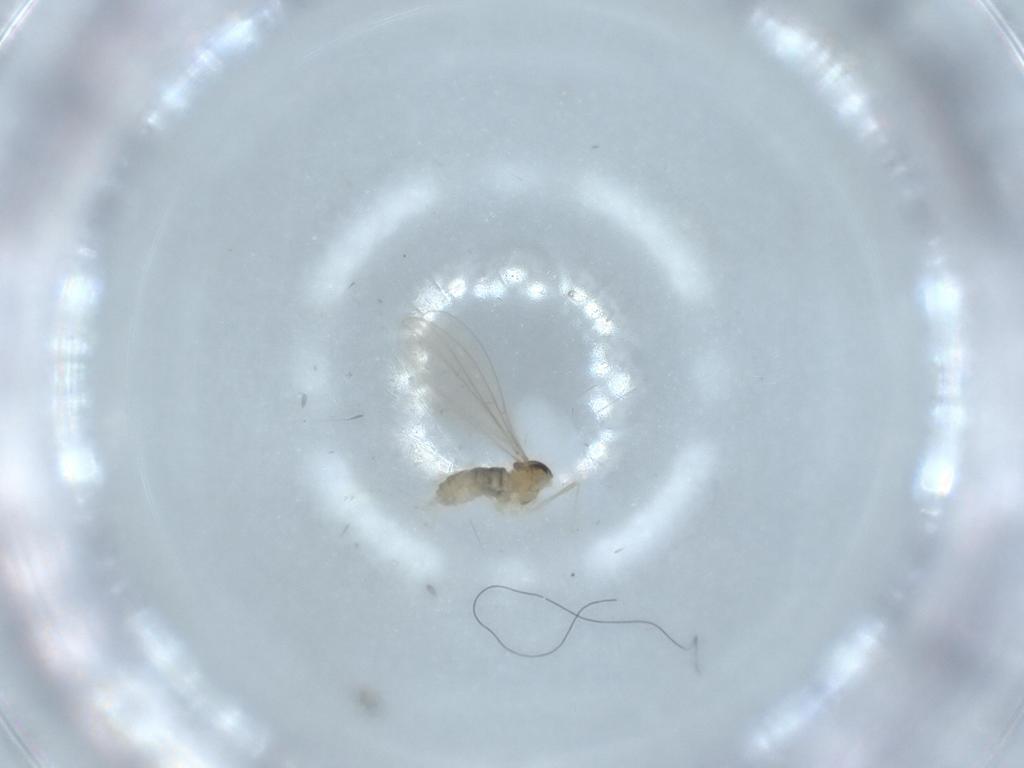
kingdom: Animalia
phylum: Arthropoda
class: Insecta
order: Diptera
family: Cecidomyiidae
